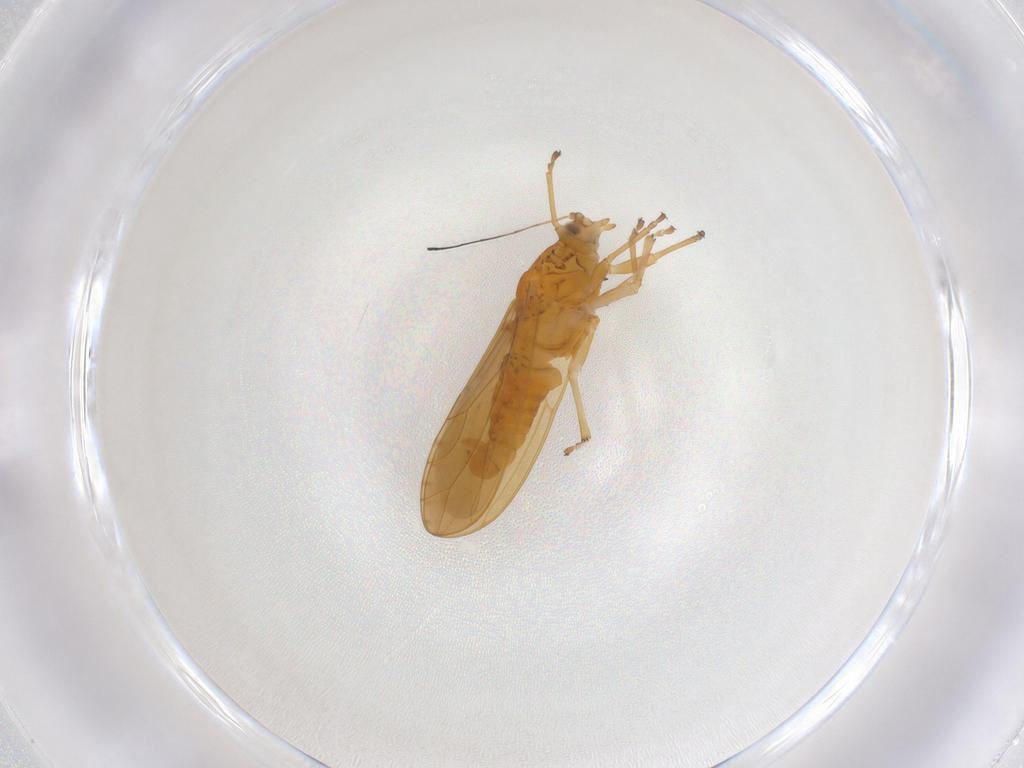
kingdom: Animalia
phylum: Arthropoda
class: Insecta
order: Hemiptera
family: Triozidae
